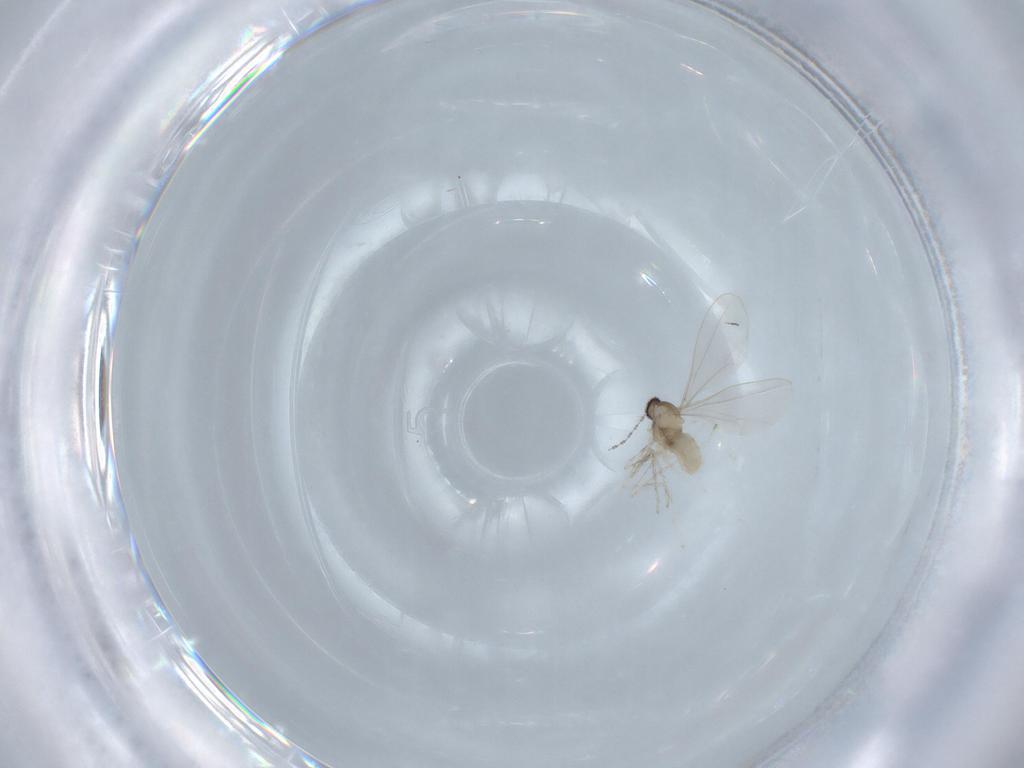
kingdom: Animalia
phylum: Arthropoda
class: Insecta
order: Diptera
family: Cecidomyiidae
